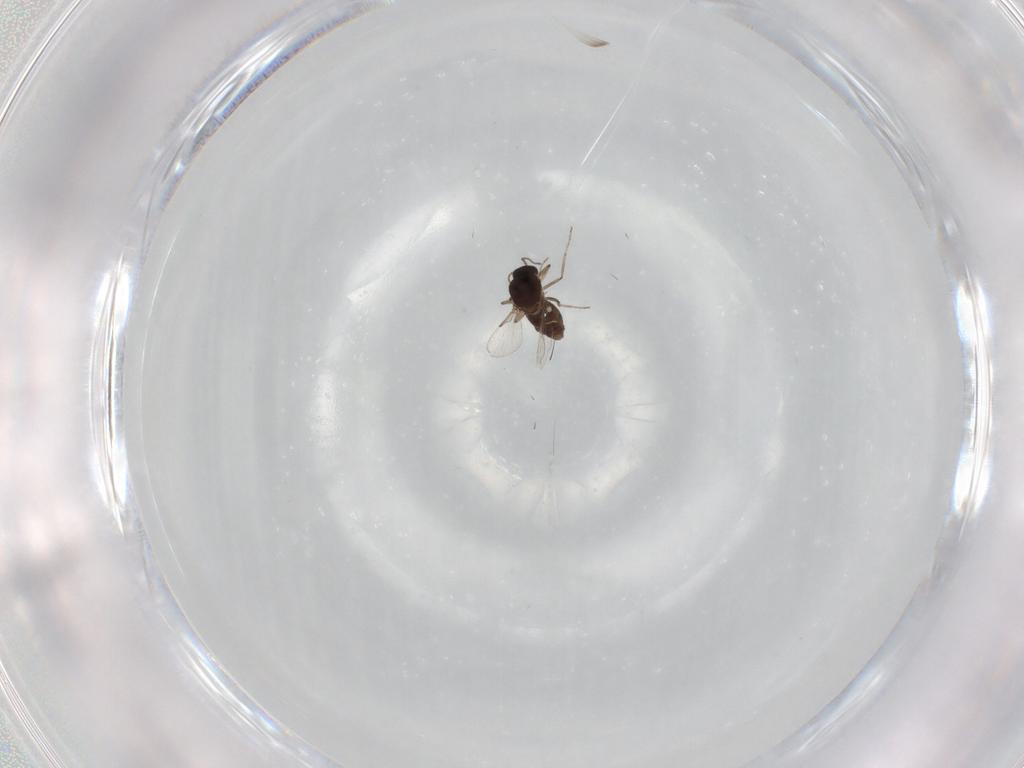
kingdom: Animalia
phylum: Arthropoda
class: Insecta
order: Diptera
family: Ceratopogonidae
